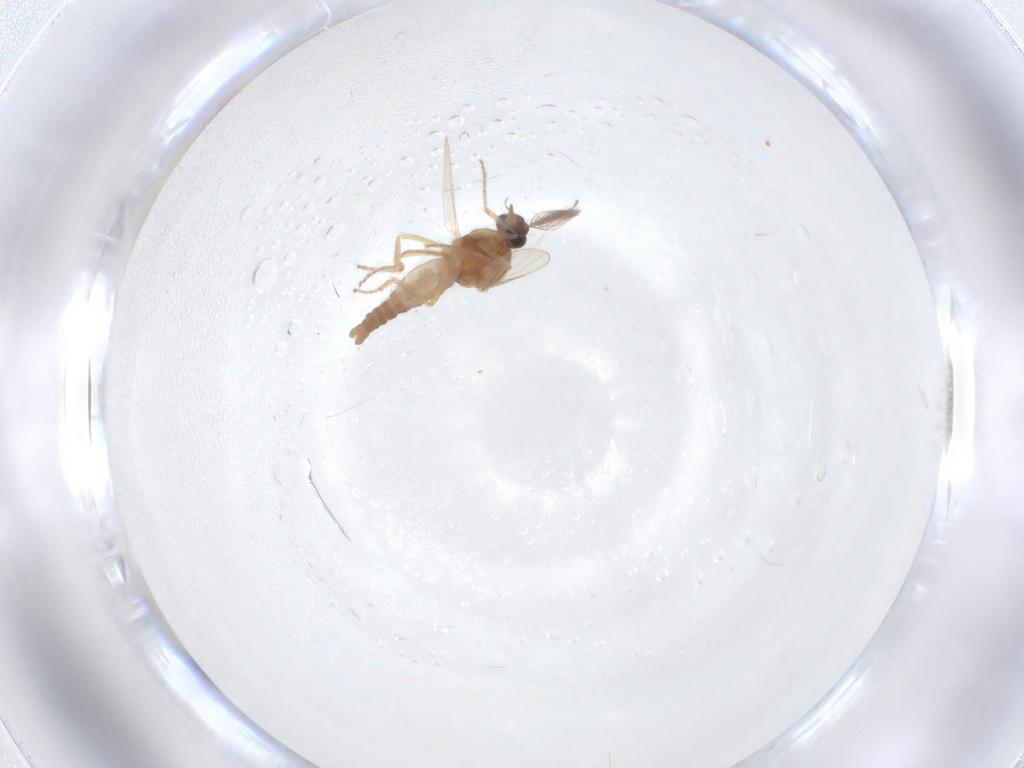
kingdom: Animalia
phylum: Arthropoda
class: Insecta
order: Diptera
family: Ceratopogonidae
